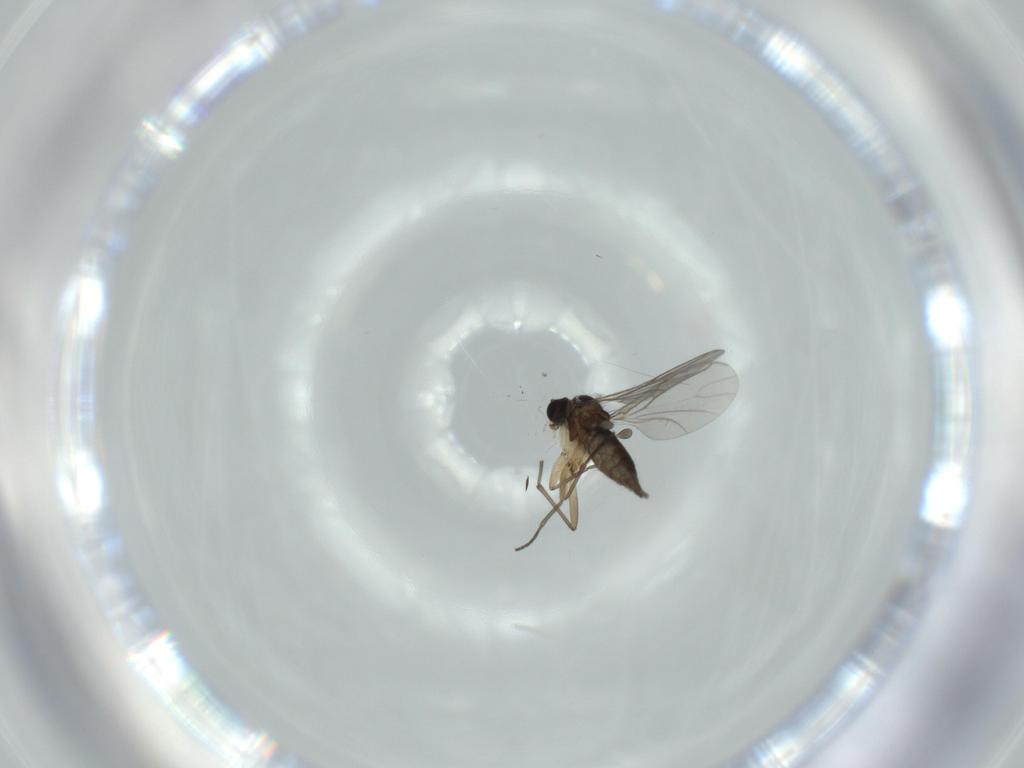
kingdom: Animalia
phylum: Arthropoda
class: Insecta
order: Diptera
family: Sciaridae
